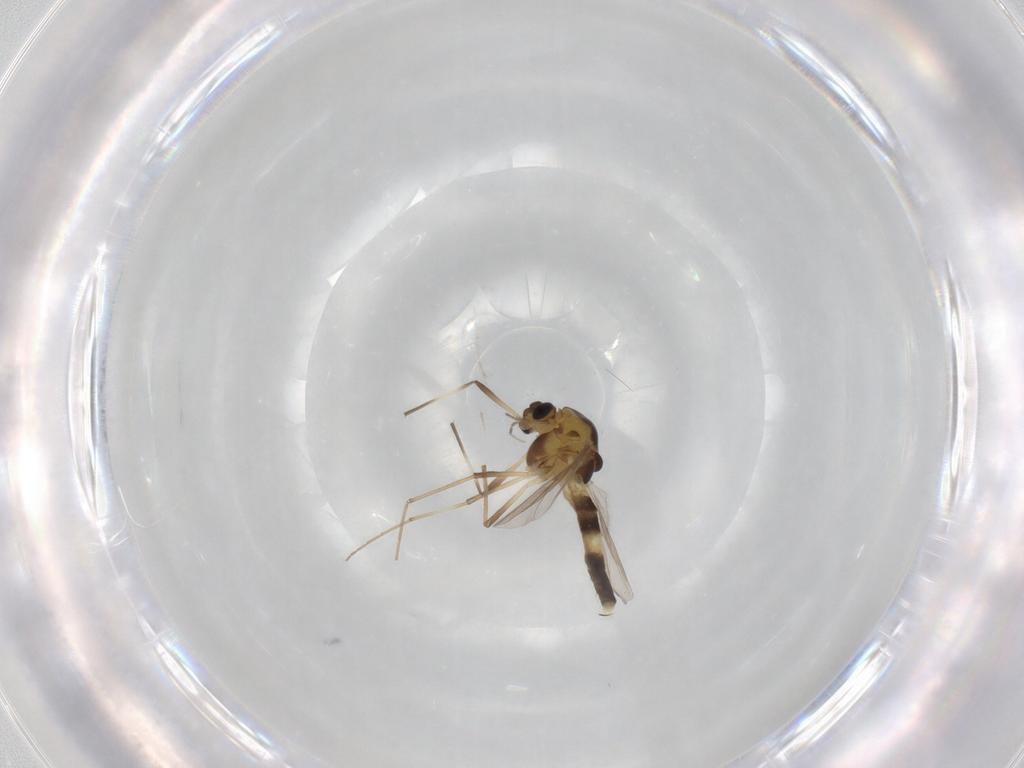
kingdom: Animalia
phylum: Arthropoda
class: Insecta
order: Diptera
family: Chironomidae
